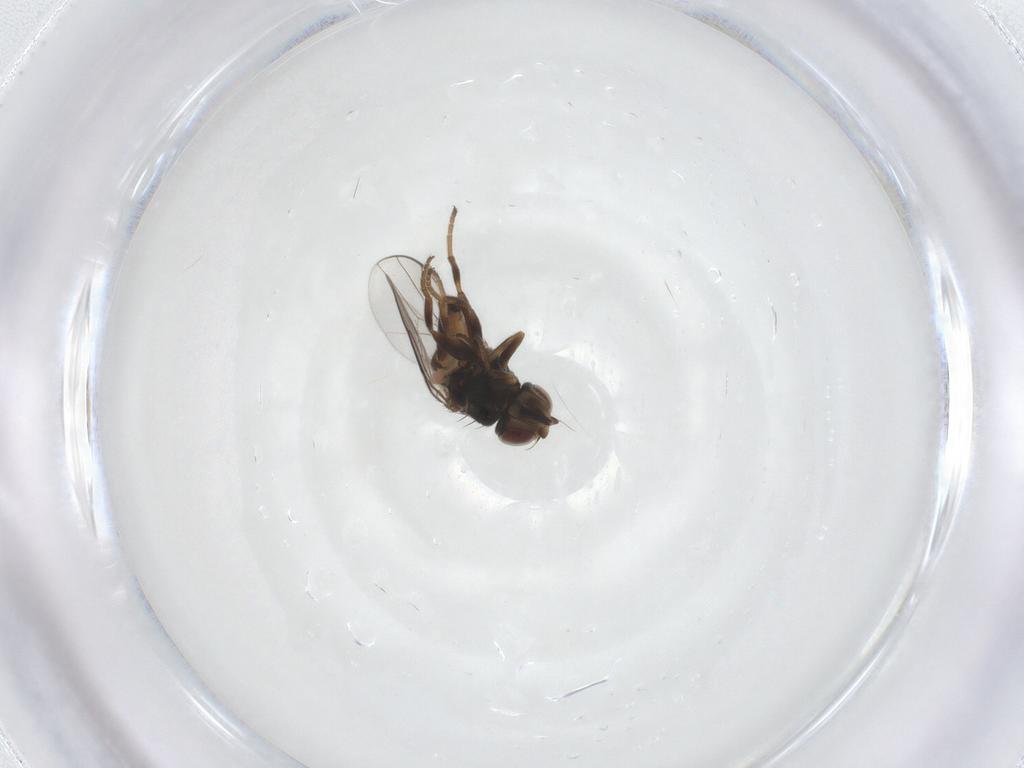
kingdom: Animalia
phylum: Arthropoda
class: Insecta
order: Diptera
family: Chloropidae
